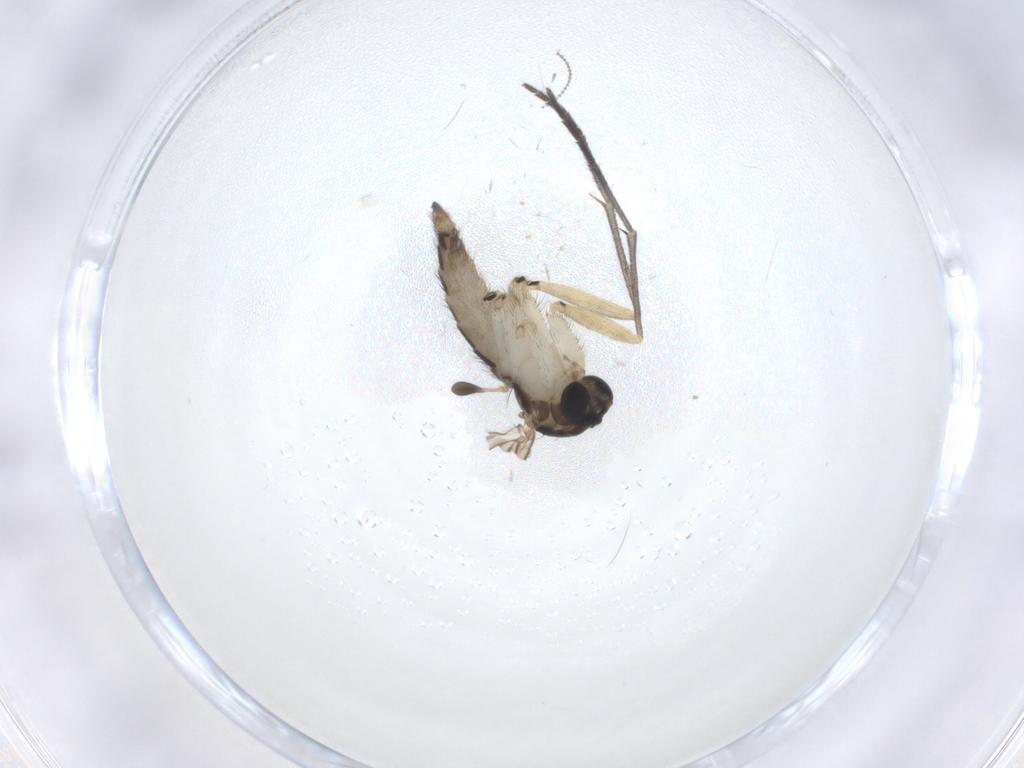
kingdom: Animalia
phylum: Arthropoda
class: Insecta
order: Diptera
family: Sciaridae
